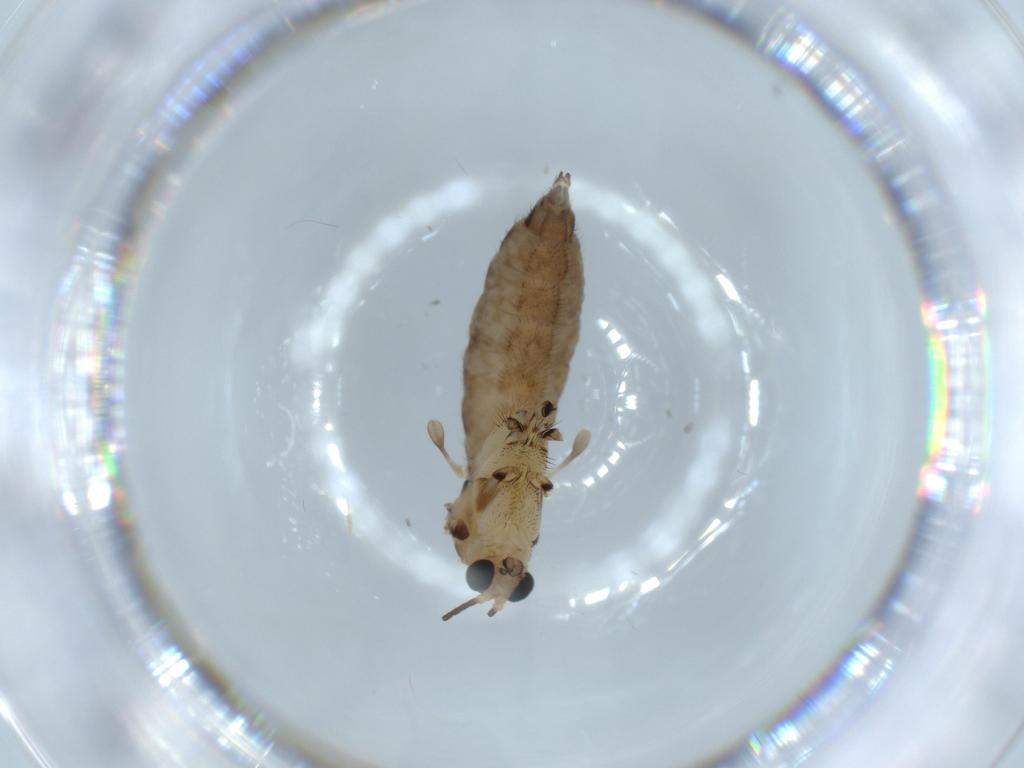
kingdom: Animalia
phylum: Arthropoda
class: Insecta
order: Diptera
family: Sciaridae
